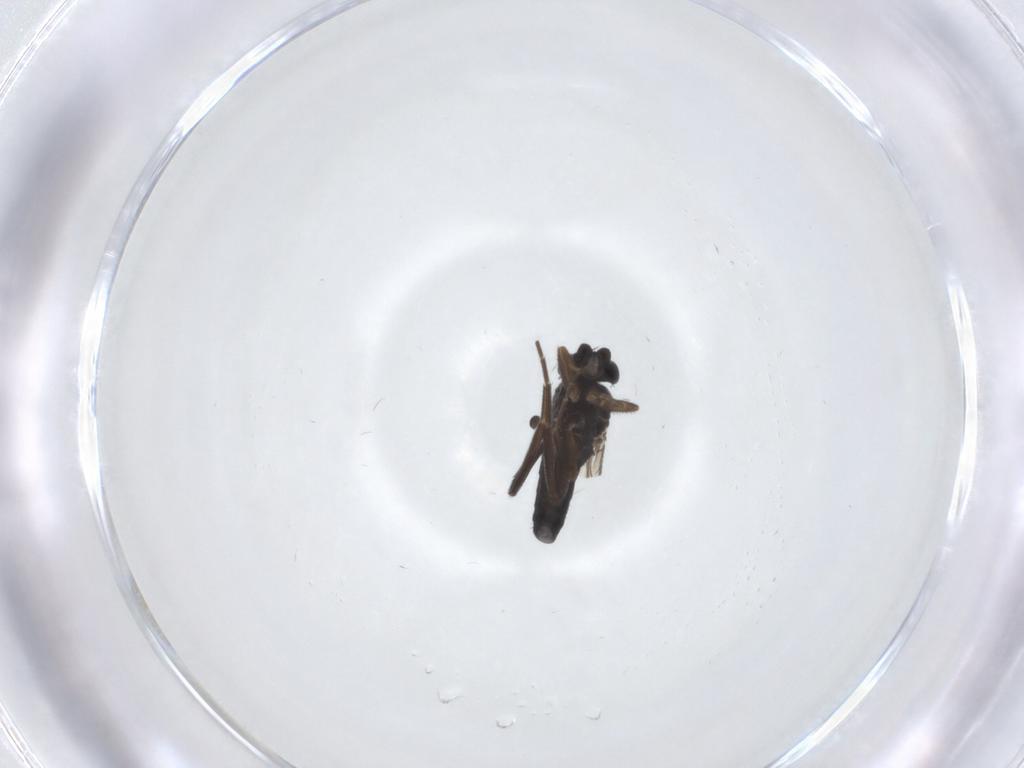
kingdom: Animalia
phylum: Arthropoda
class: Insecta
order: Diptera
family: Phoridae
